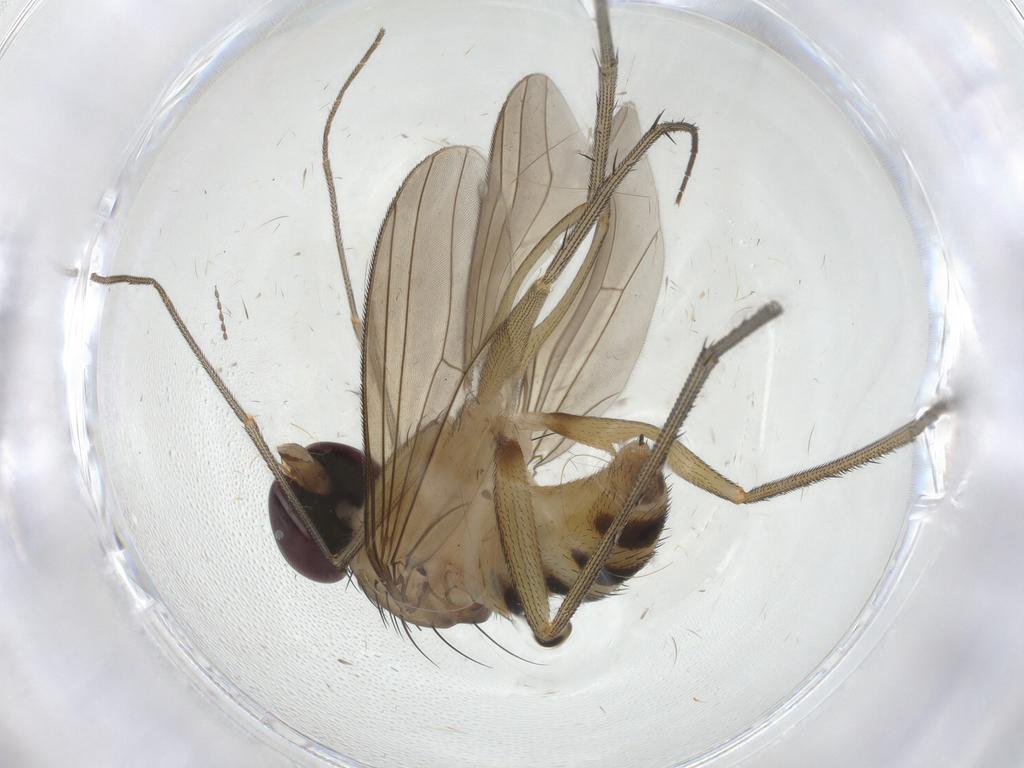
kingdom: Animalia
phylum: Arthropoda
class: Insecta
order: Diptera
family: Dolichopodidae
